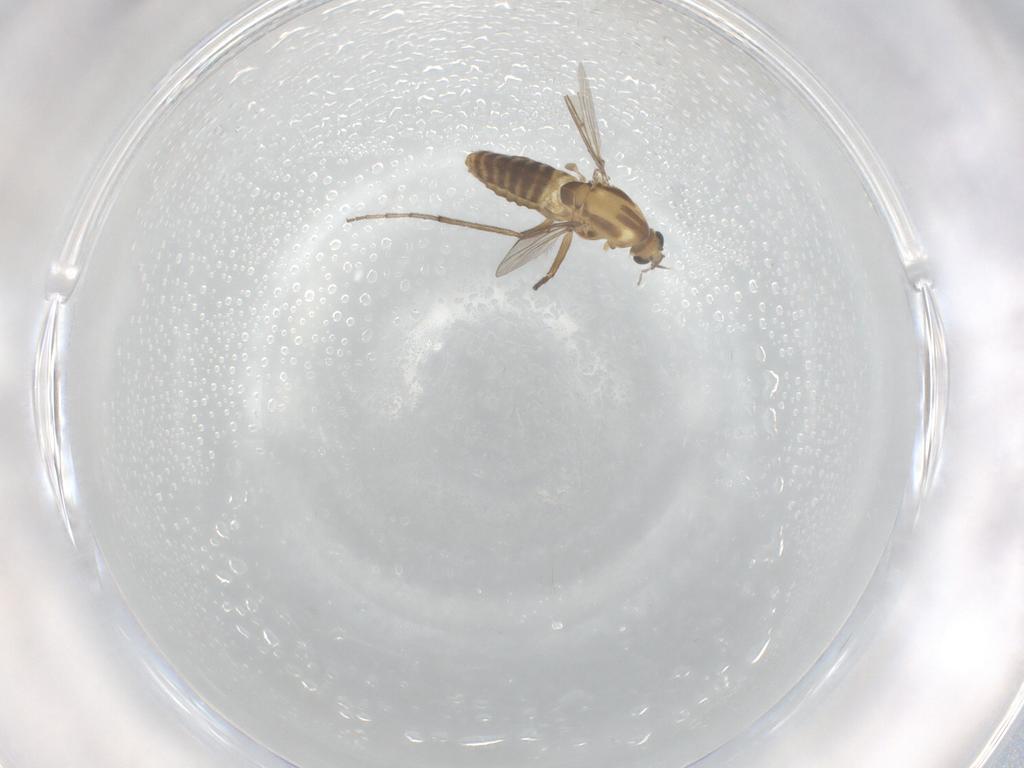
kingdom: Animalia
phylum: Arthropoda
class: Insecta
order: Diptera
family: Chironomidae
